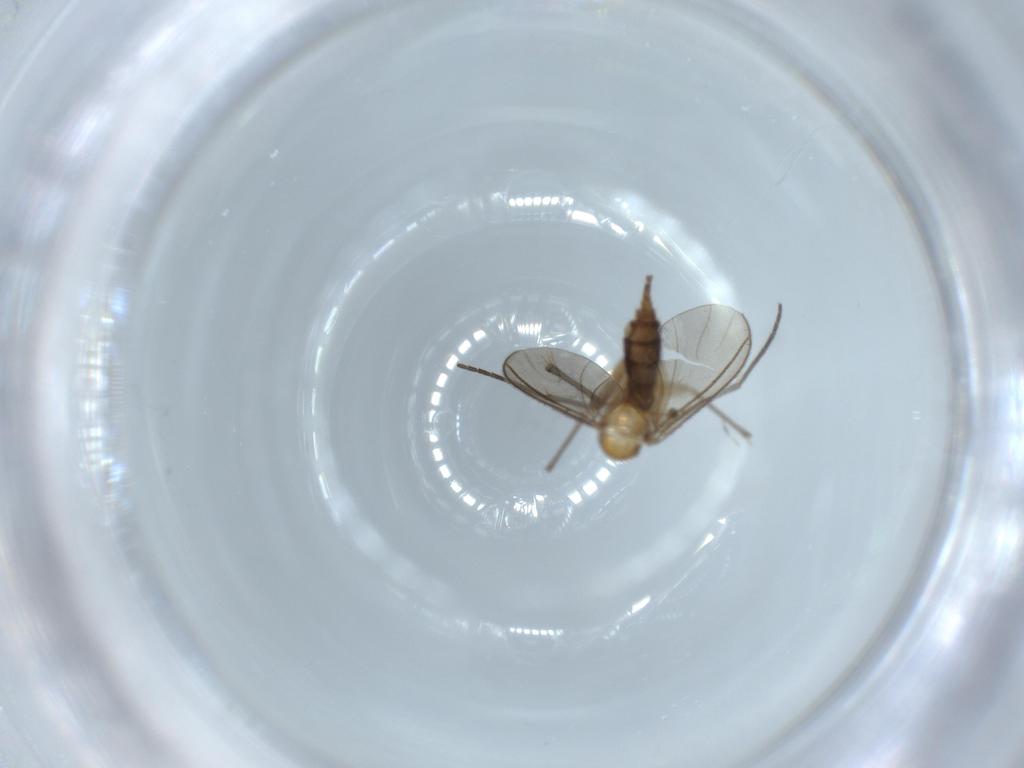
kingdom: Animalia
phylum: Arthropoda
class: Insecta
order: Diptera
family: Sciaridae
